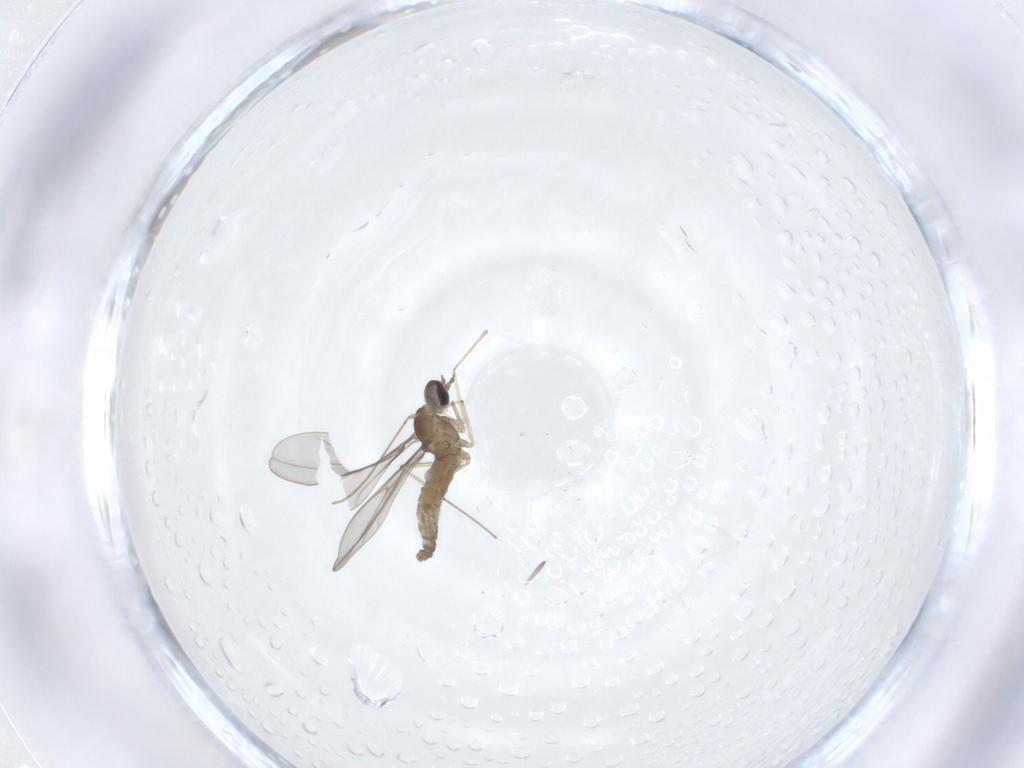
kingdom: Animalia
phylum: Arthropoda
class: Insecta
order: Diptera
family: Cecidomyiidae
